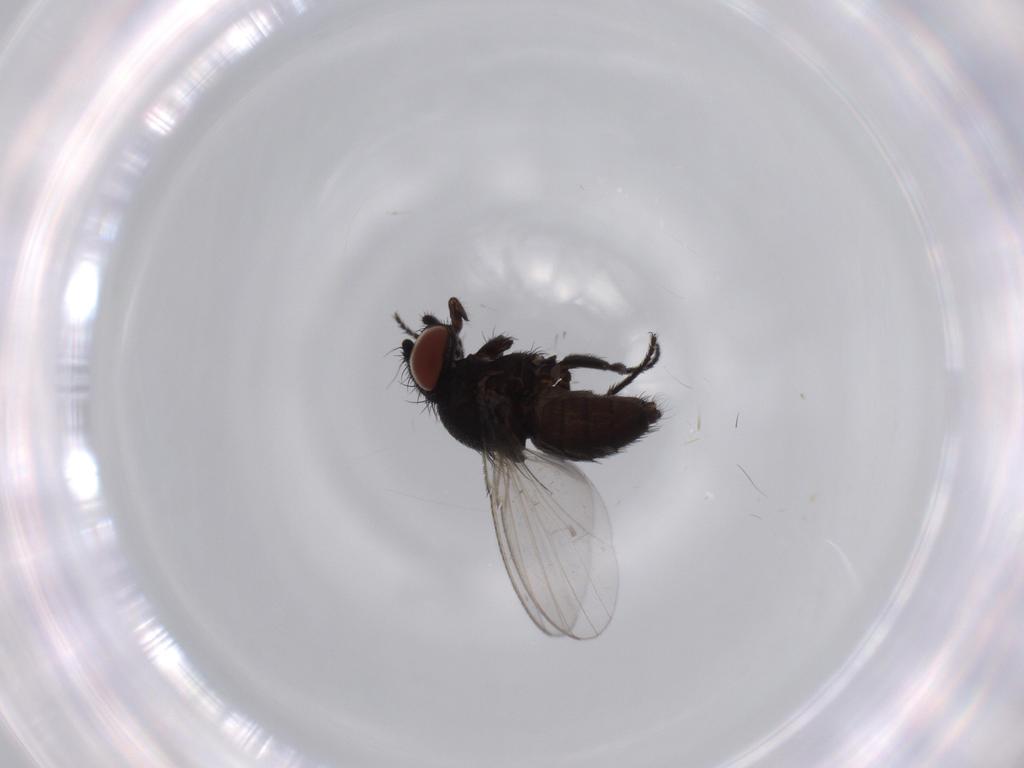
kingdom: Animalia
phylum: Arthropoda
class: Insecta
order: Diptera
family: Milichiidae
